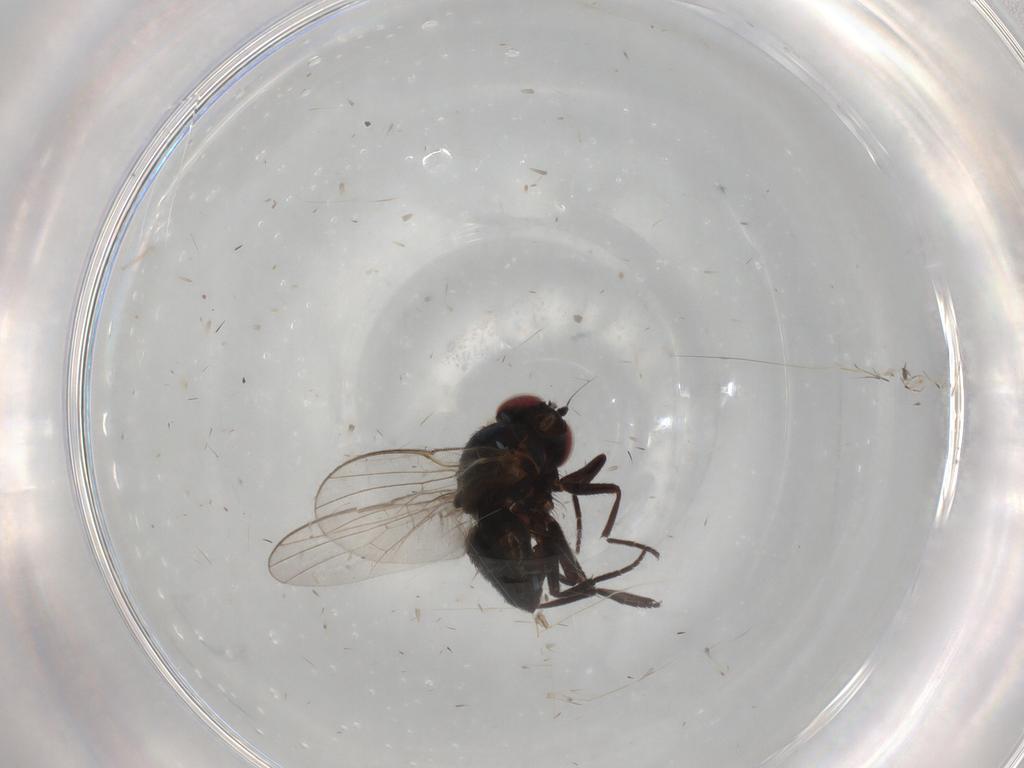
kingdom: Animalia
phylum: Arthropoda
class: Insecta
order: Diptera
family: Agromyzidae
